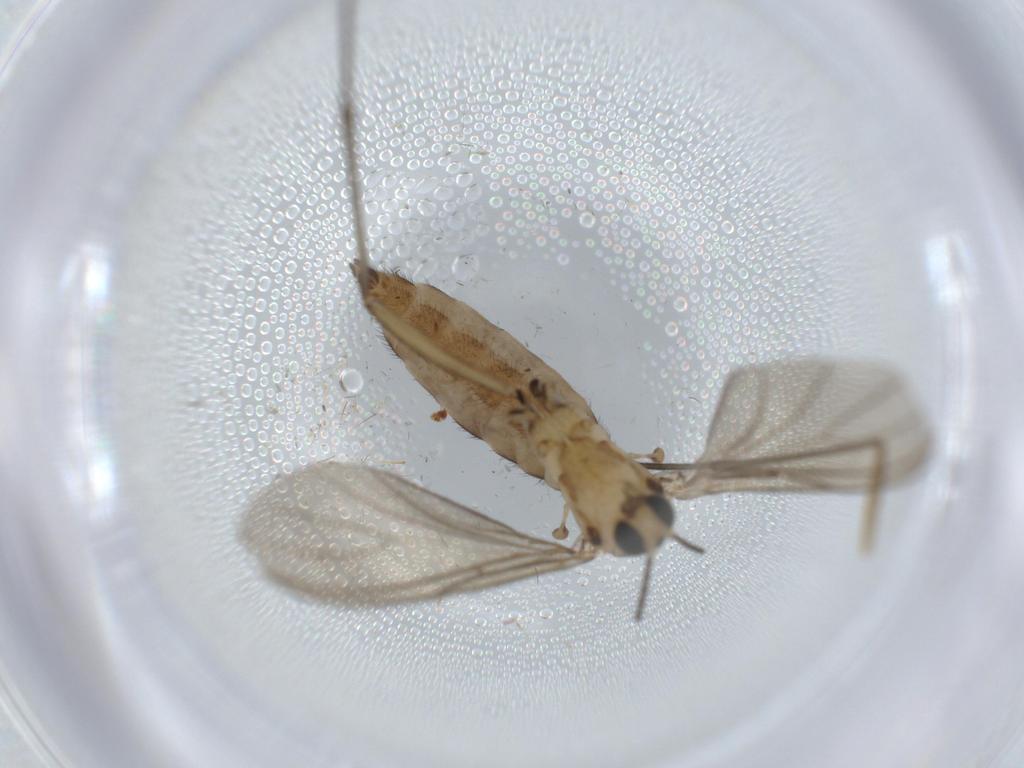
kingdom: Animalia
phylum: Arthropoda
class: Insecta
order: Diptera
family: Sciaridae
